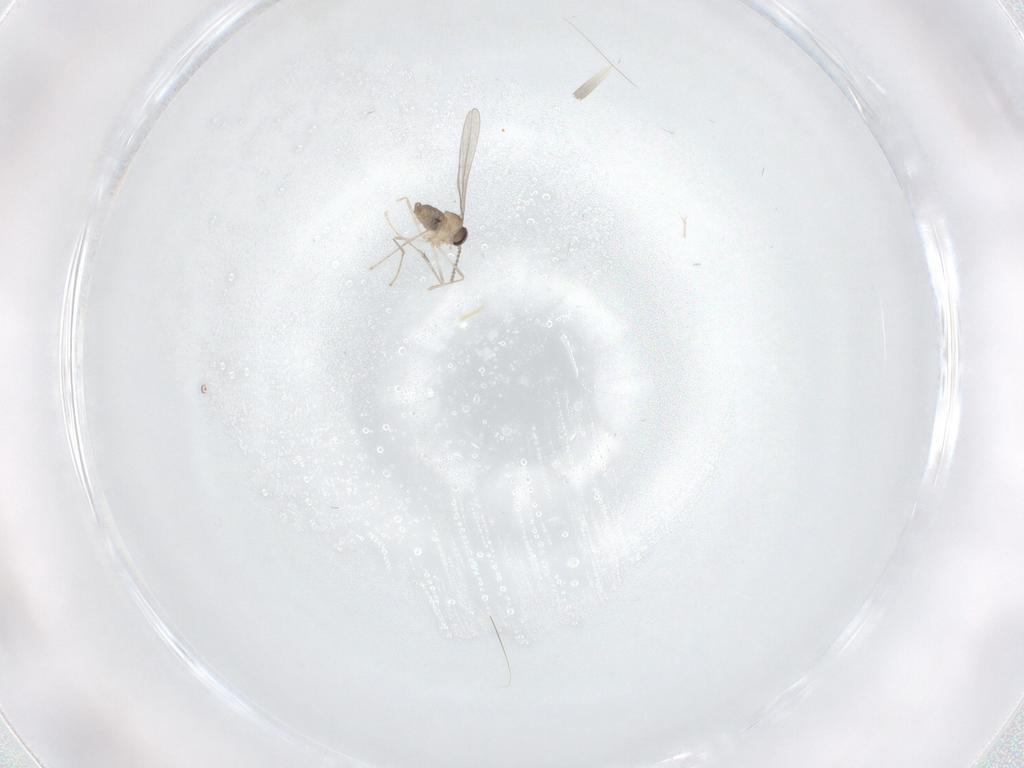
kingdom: Animalia
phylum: Arthropoda
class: Insecta
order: Diptera
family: Cecidomyiidae
